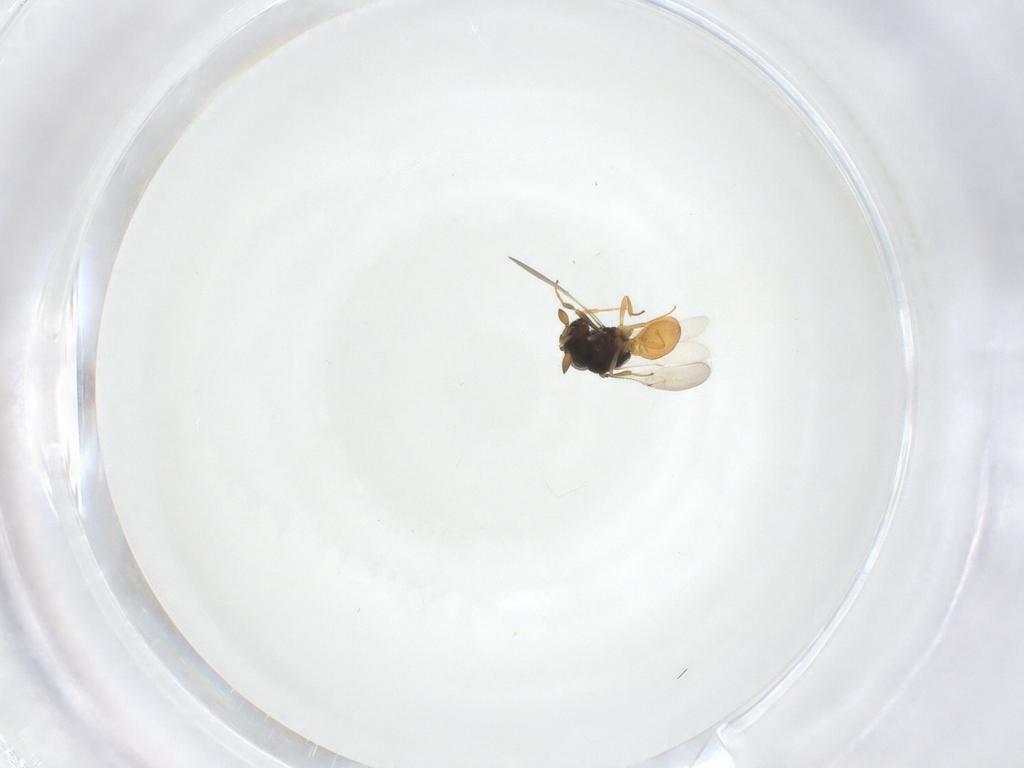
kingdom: Animalia
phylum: Arthropoda
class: Insecta
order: Hymenoptera
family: Scelionidae
